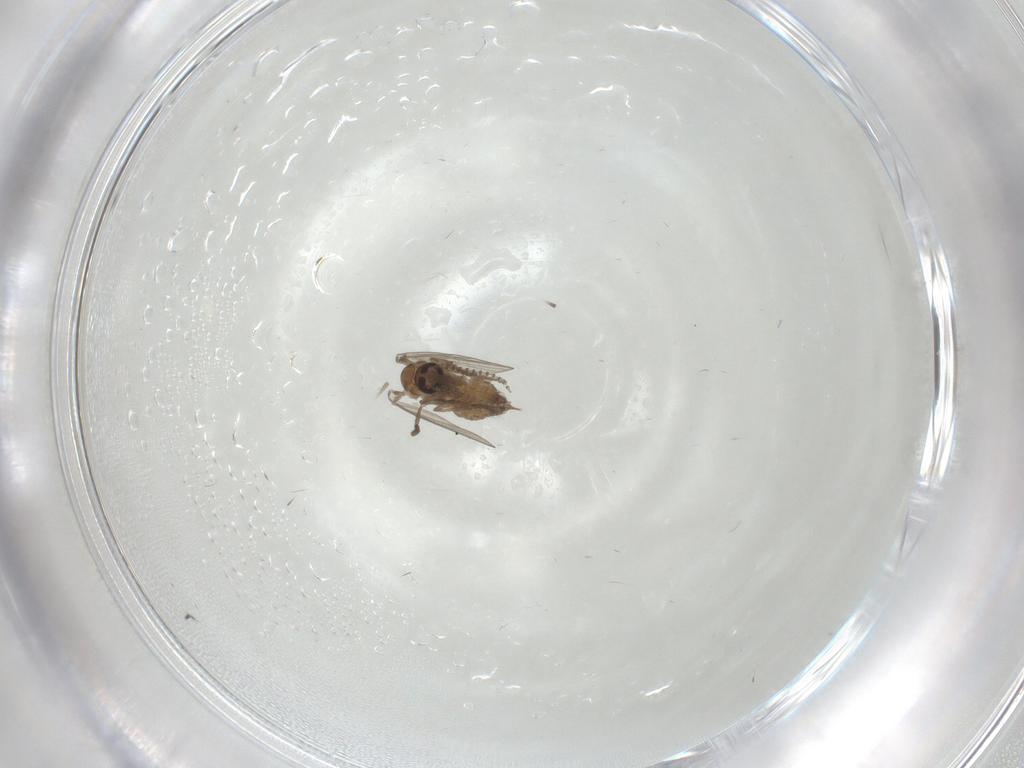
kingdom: Animalia
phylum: Arthropoda
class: Insecta
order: Diptera
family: Psychodidae
